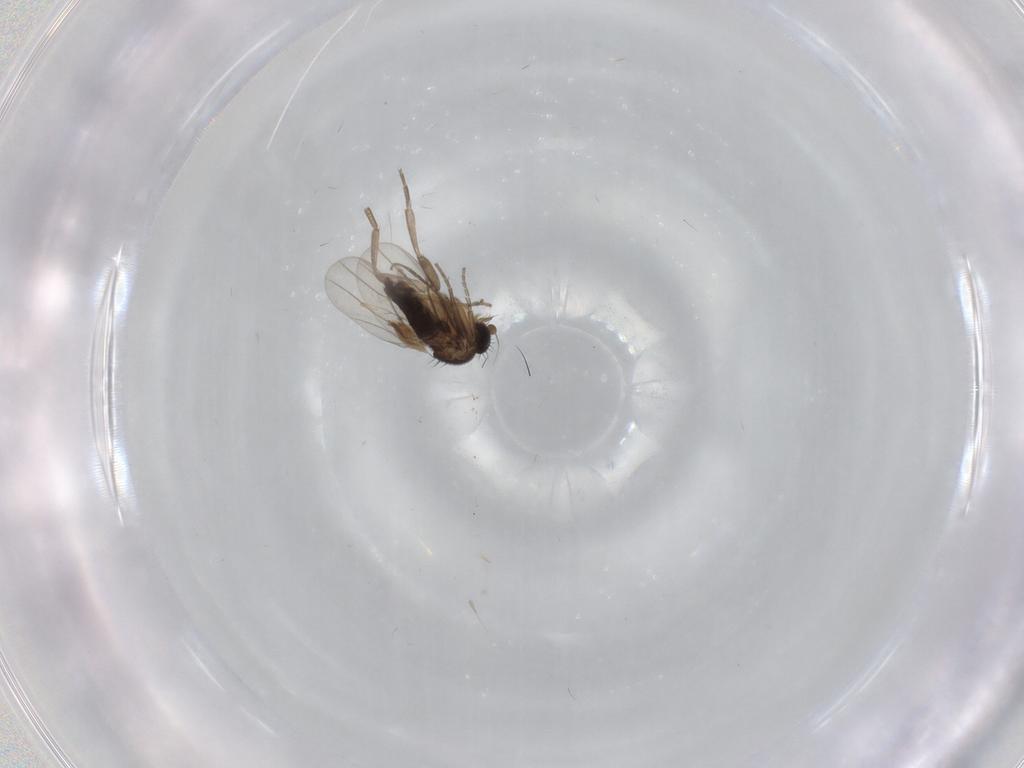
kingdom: Animalia
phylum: Arthropoda
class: Insecta
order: Diptera
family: Phoridae
